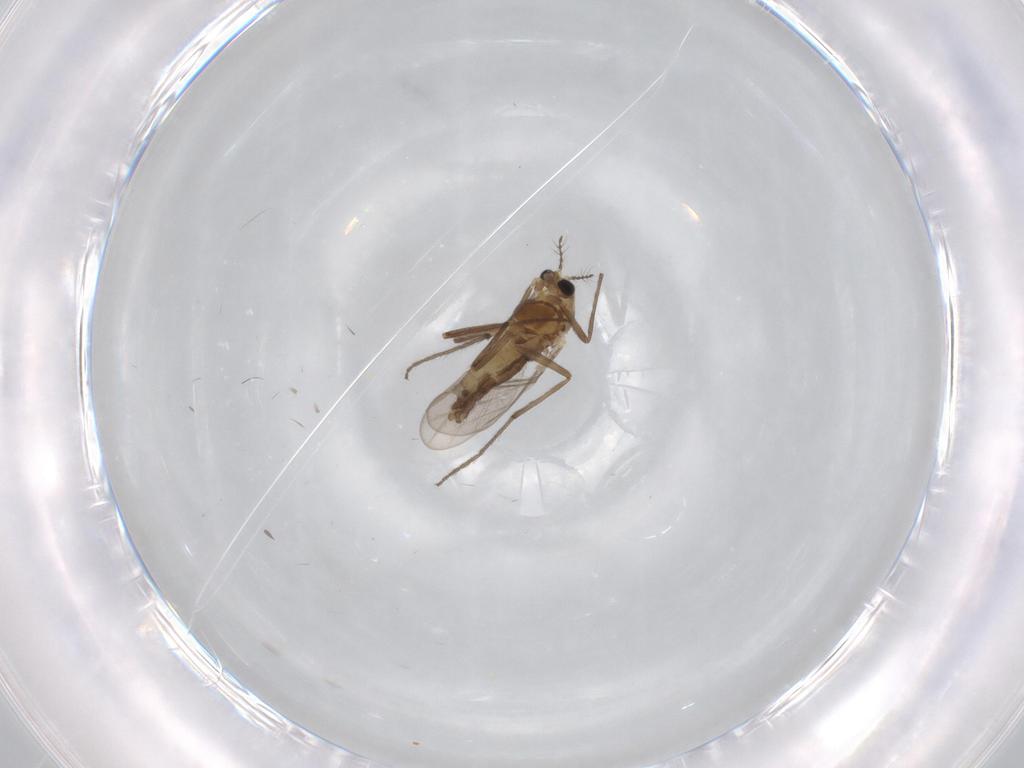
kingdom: Animalia
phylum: Arthropoda
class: Insecta
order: Diptera
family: Chironomidae
